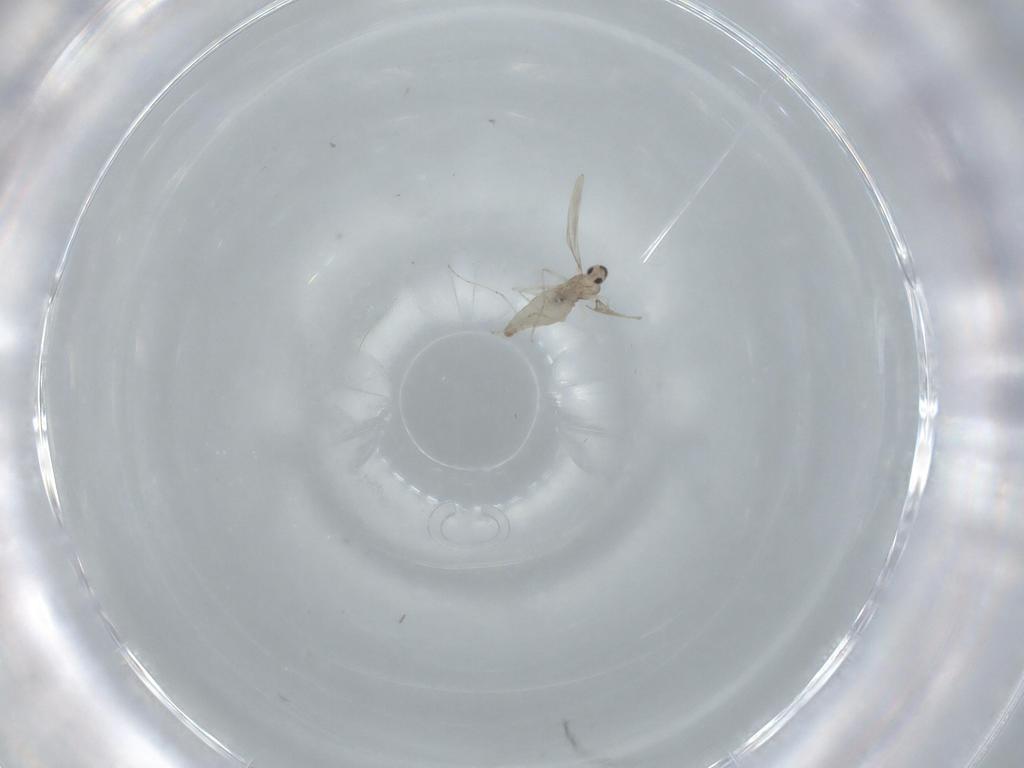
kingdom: Animalia
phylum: Arthropoda
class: Insecta
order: Diptera
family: Cecidomyiidae
